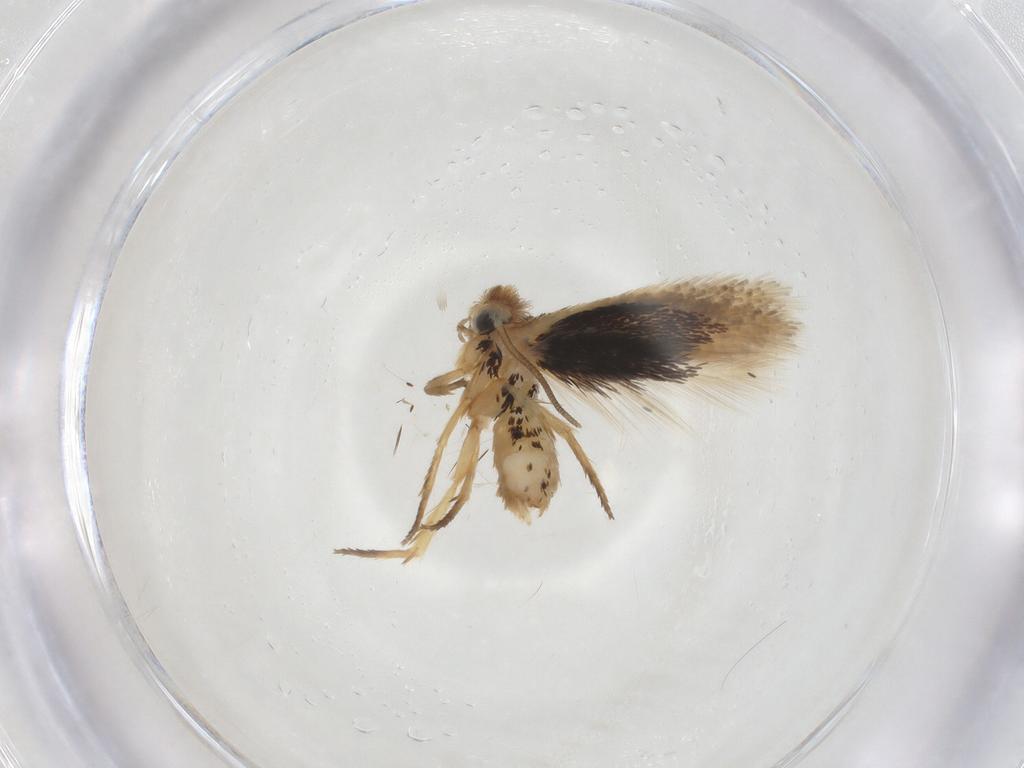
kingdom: Animalia
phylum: Arthropoda
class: Insecta
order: Lepidoptera
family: Nepticulidae
